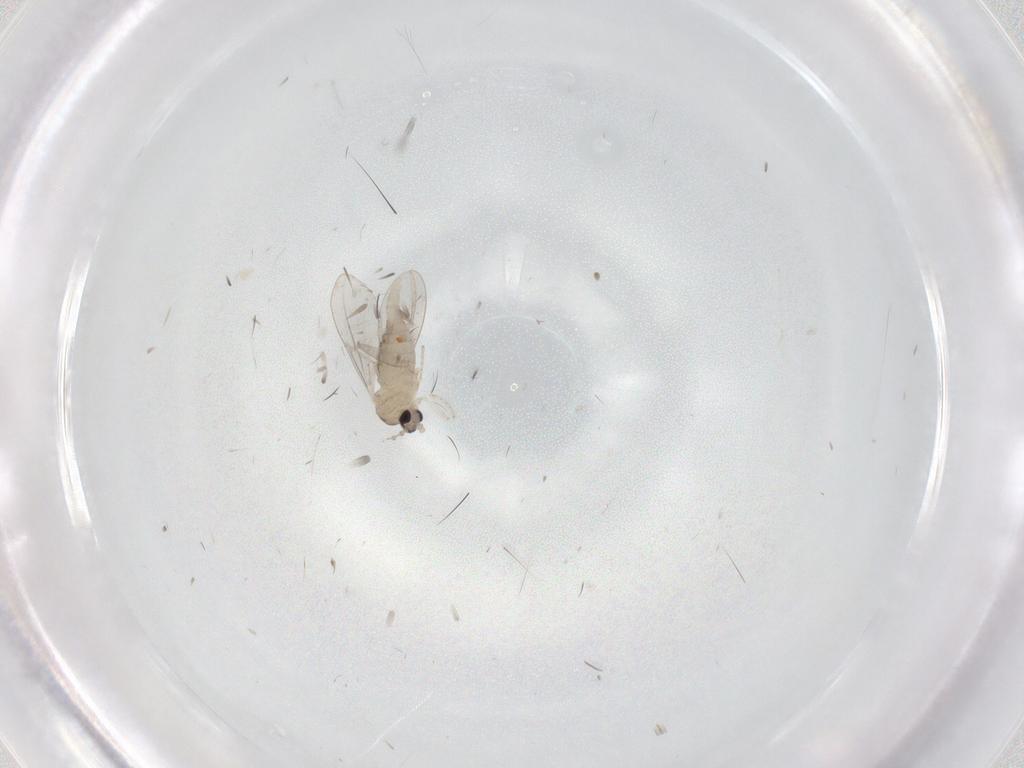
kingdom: Animalia
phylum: Arthropoda
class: Insecta
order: Diptera
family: Cecidomyiidae
